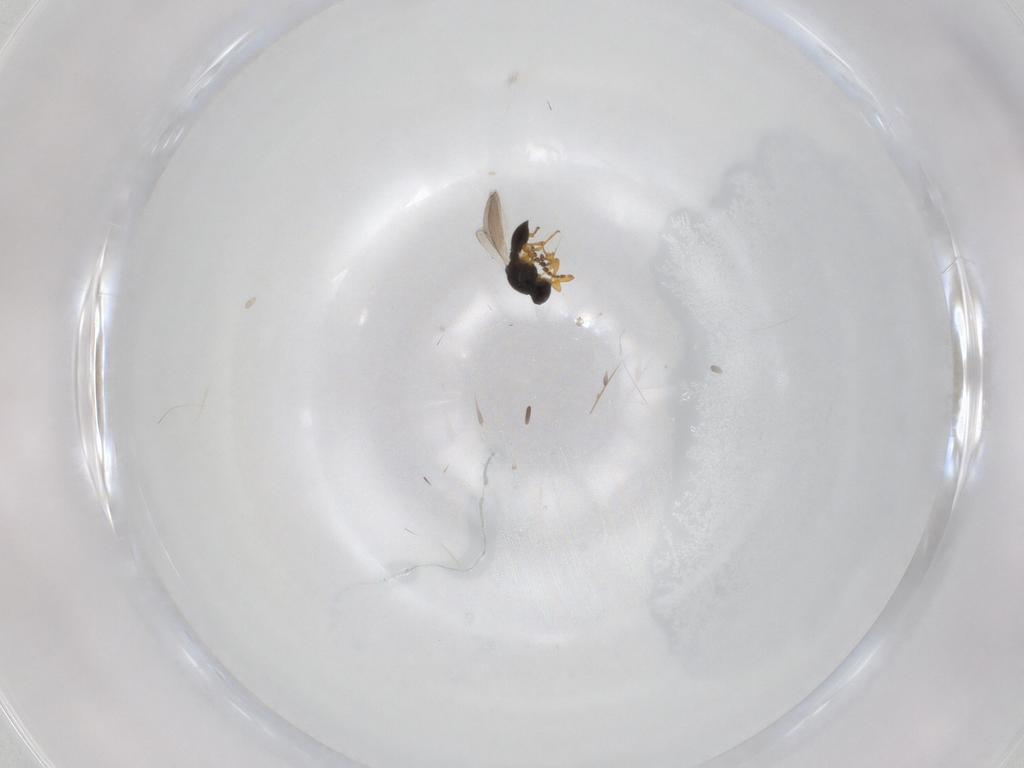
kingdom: Animalia
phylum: Arthropoda
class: Insecta
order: Hymenoptera
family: Platygastridae
